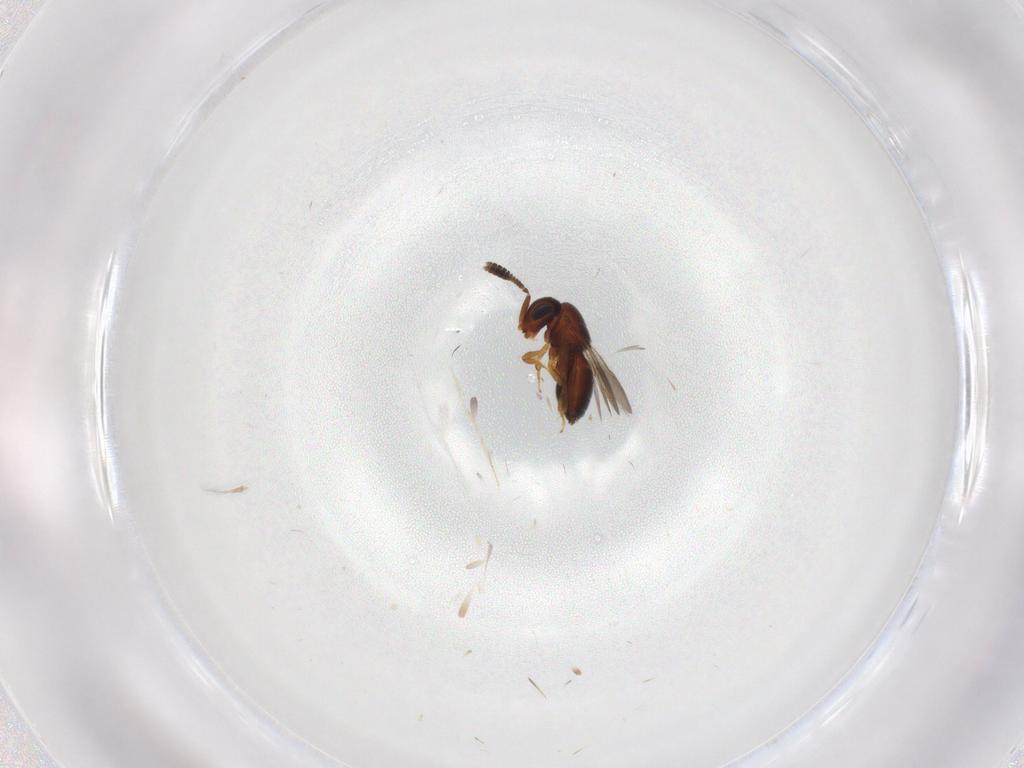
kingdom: Animalia
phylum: Arthropoda
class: Insecta
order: Hymenoptera
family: Scelionidae
